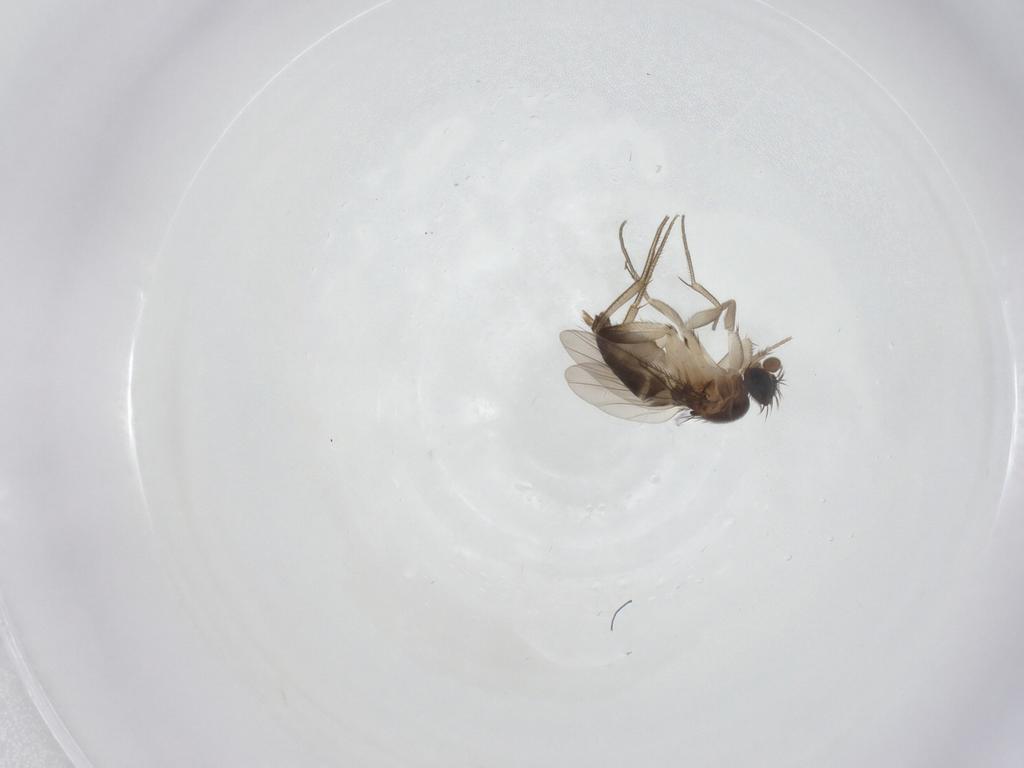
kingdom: Animalia
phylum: Arthropoda
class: Insecta
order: Diptera
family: Phoridae
